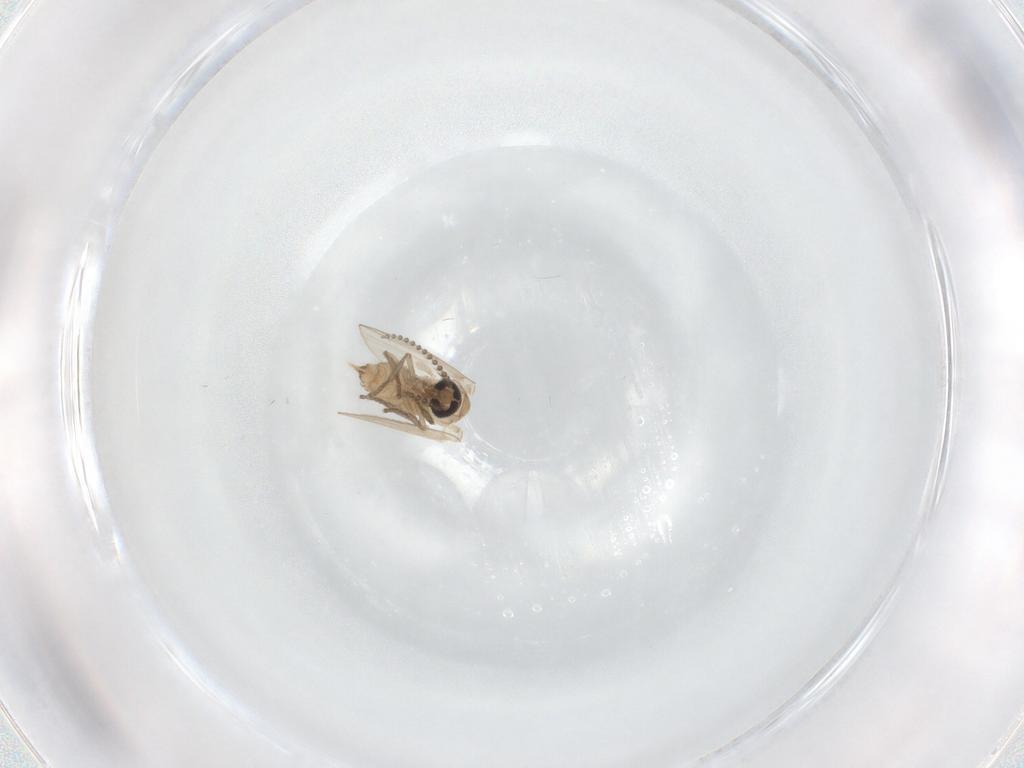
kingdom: Animalia
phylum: Arthropoda
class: Insecta
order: Diptera
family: Psychodidae
